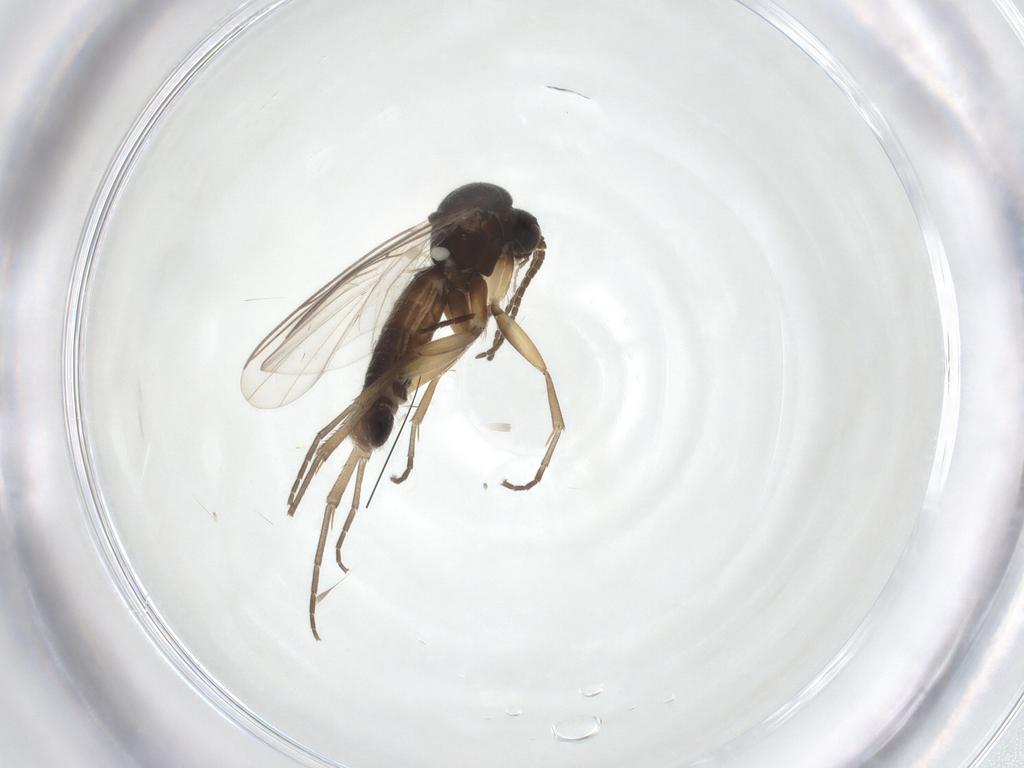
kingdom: Animalia
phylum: Arthropoda
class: Insecta
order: Diptera
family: Mycetophilidae
